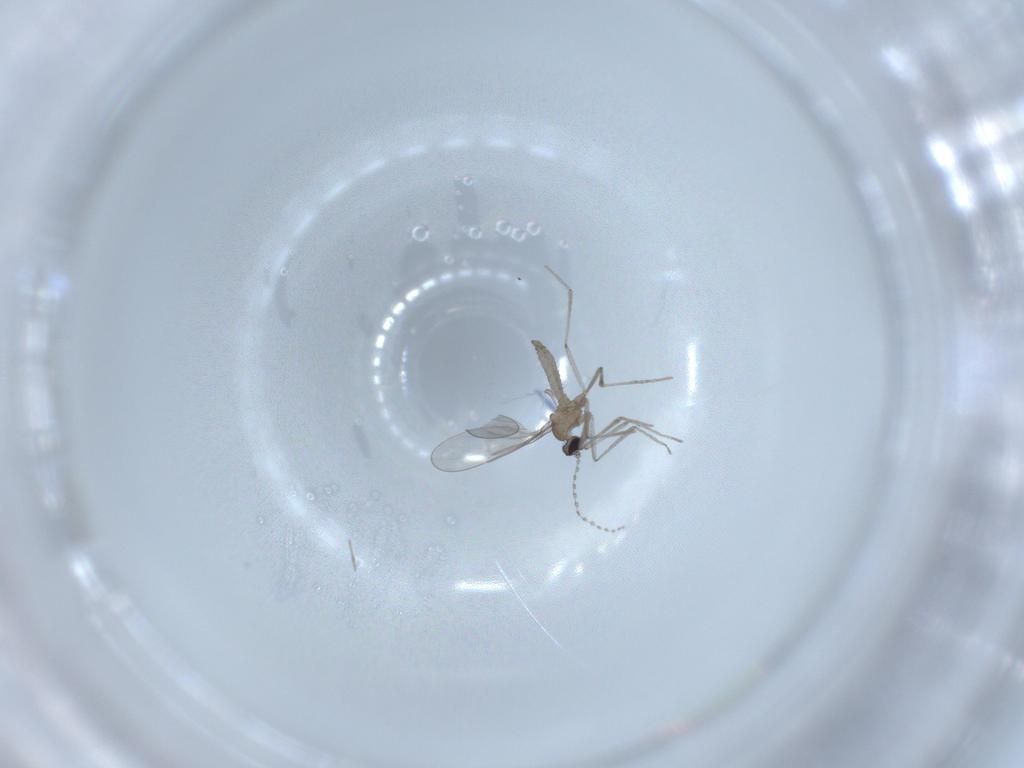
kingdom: Animalia
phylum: Arthropoda
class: Insecta
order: Diptera
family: Cecidomyiidae
